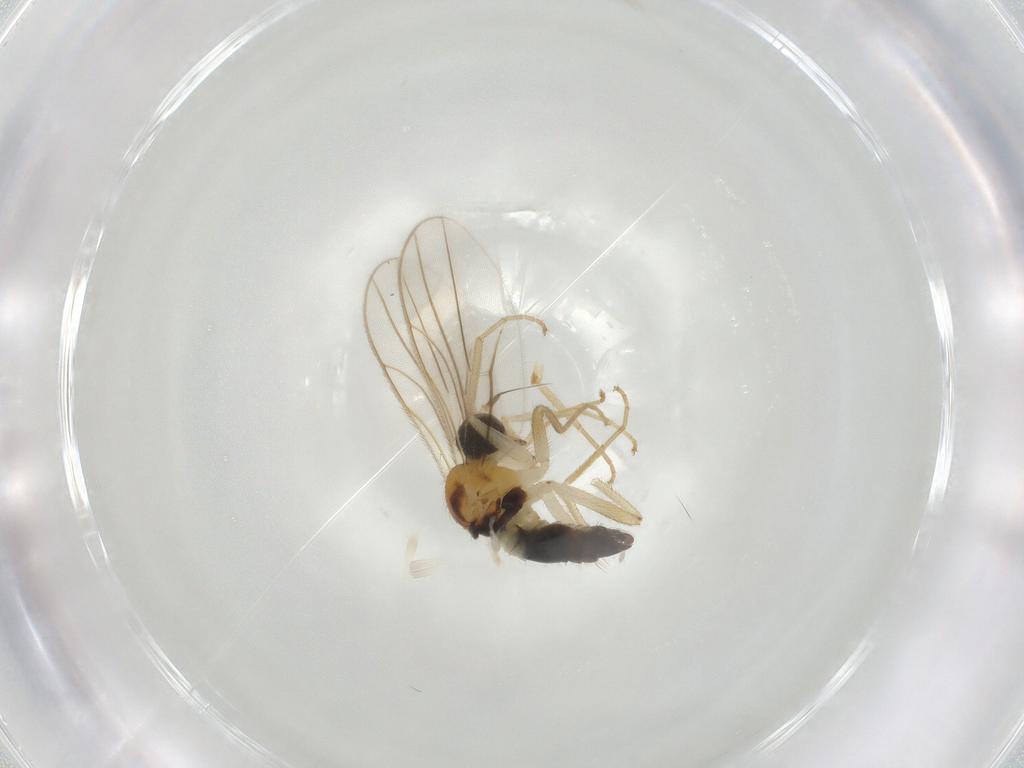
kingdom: Animalia
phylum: Arthropoda
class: Insecta
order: Diptera
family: Hybotidae
